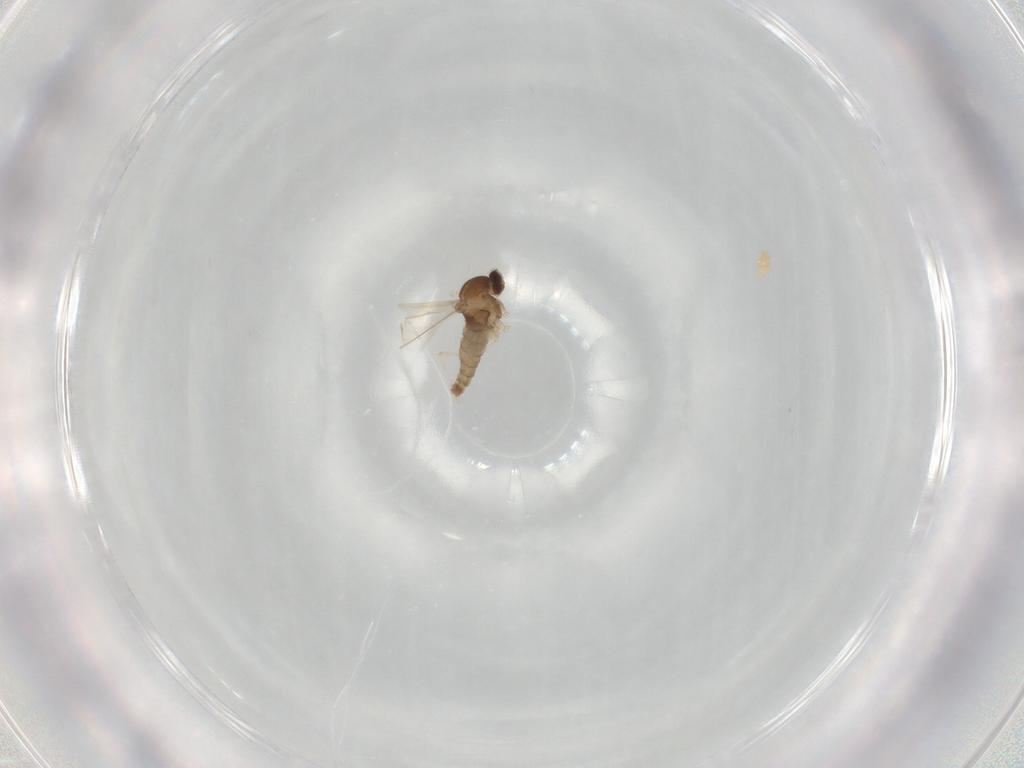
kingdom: Animalia
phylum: Arthropoda
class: Insecta
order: Diptera
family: Cecidomyiidae
